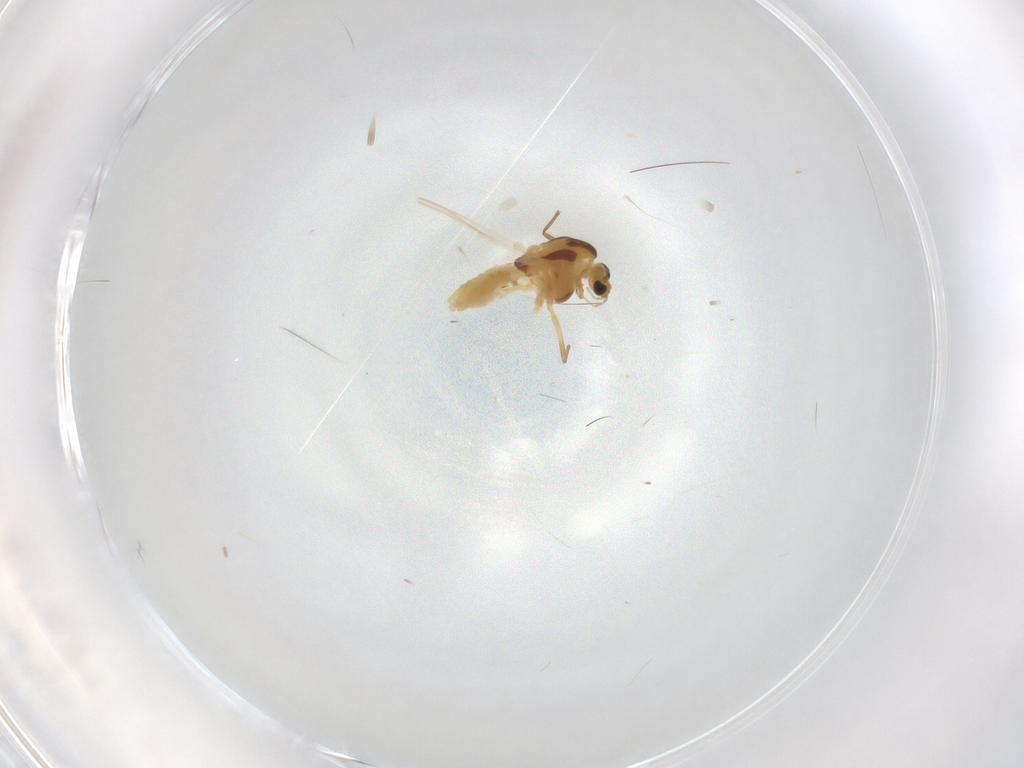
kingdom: Animalia
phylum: Arthropoda
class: Insecta
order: Diptera
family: Chironomidae
